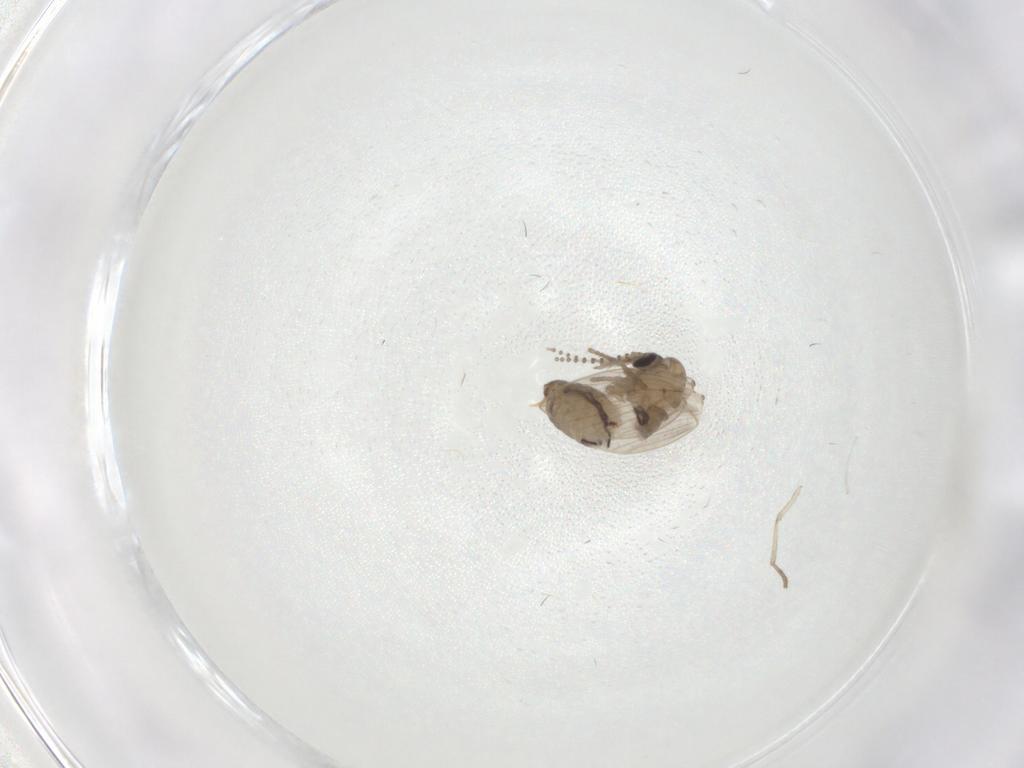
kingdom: Animalia
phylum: Arthropoda
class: Insecta
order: Diptera
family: Psychodidae
